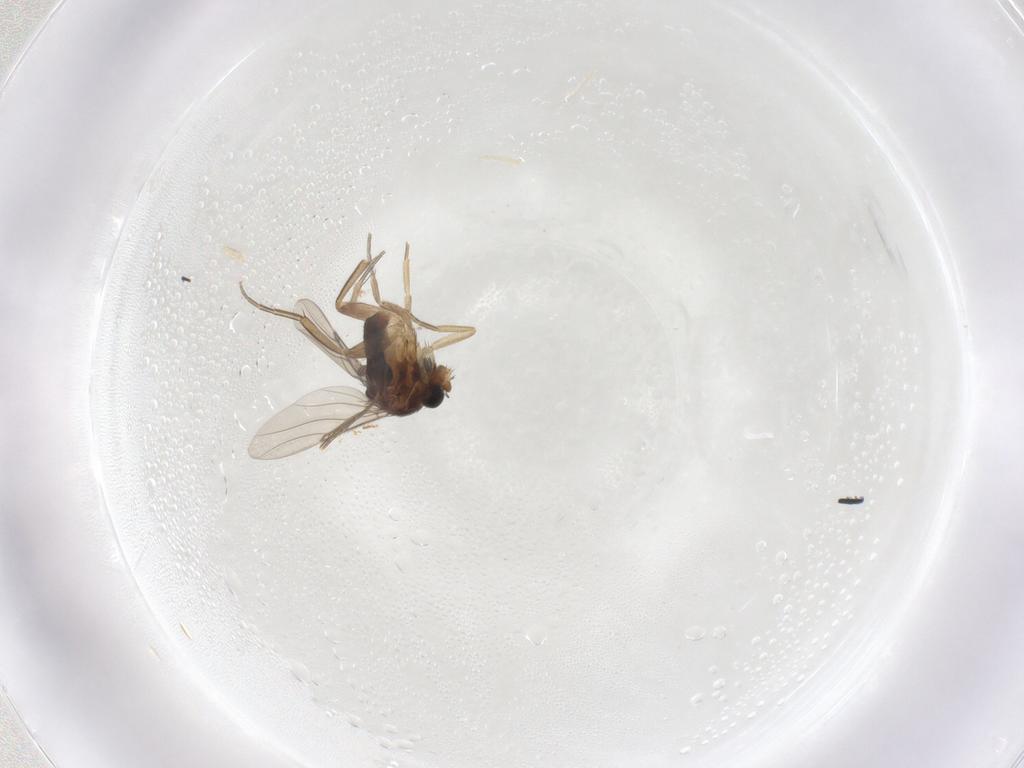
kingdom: Animalia
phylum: Arthropoda
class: Insecta
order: Diptera
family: Phoridae
